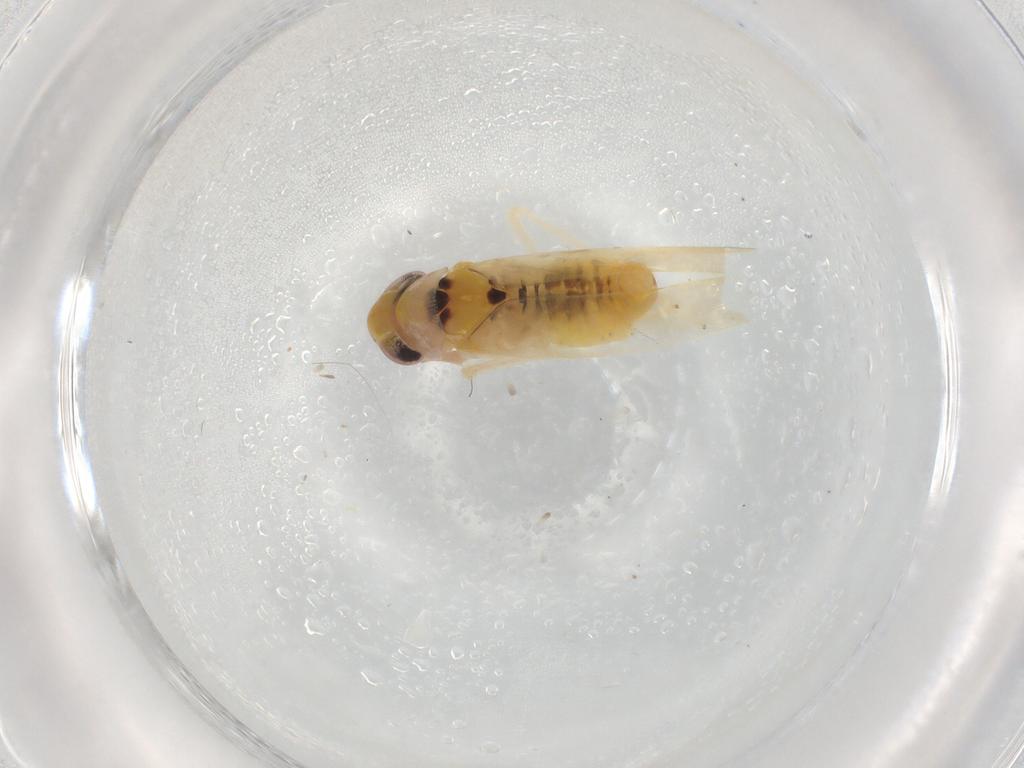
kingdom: Animalia
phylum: Arthropoda
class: Insecta
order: Hemiptera
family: Cicadellidae
